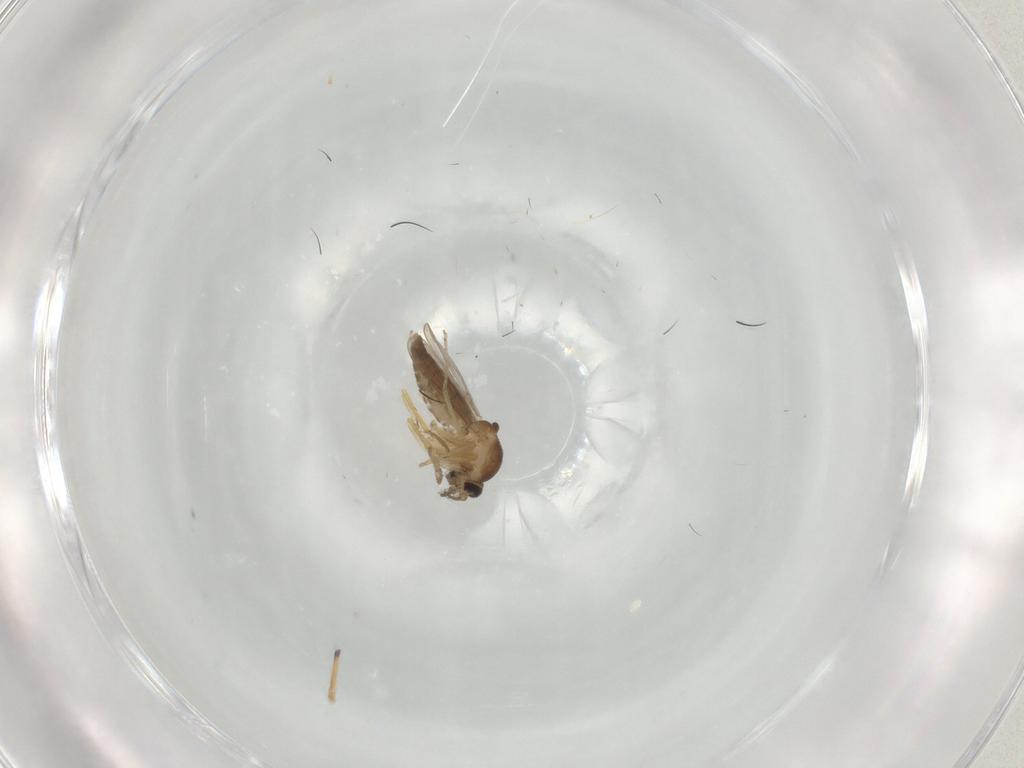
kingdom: Animalia
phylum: Arthropoda
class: Insecta
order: Diptera
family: Ceratopogonidae
